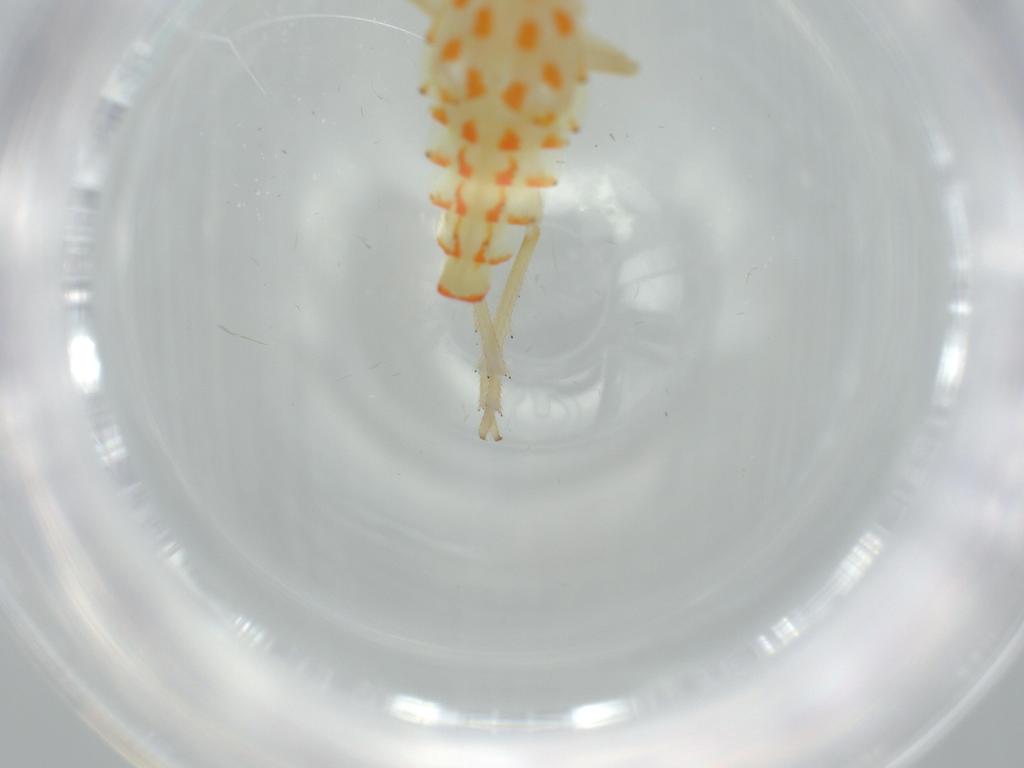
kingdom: Animalia
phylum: Arthropoda
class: Insecta
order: Hemiptera
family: Tropiduchidae
